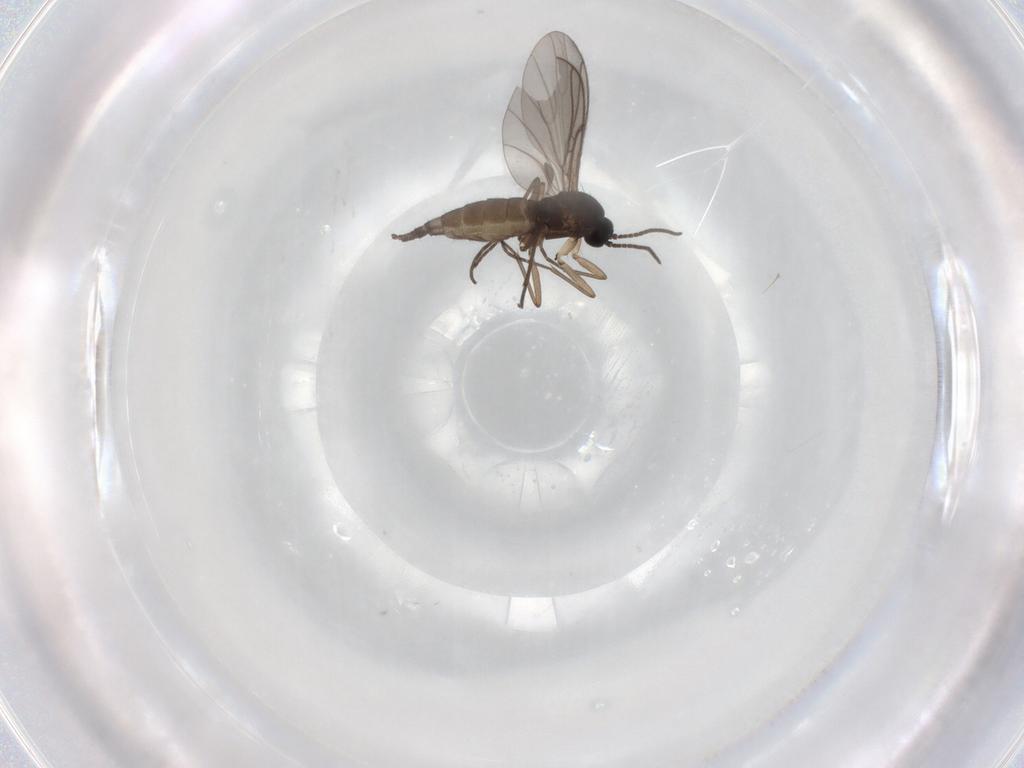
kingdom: Animalia
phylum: Arthropoda
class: Insecta
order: Diptera
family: Sciaridae
